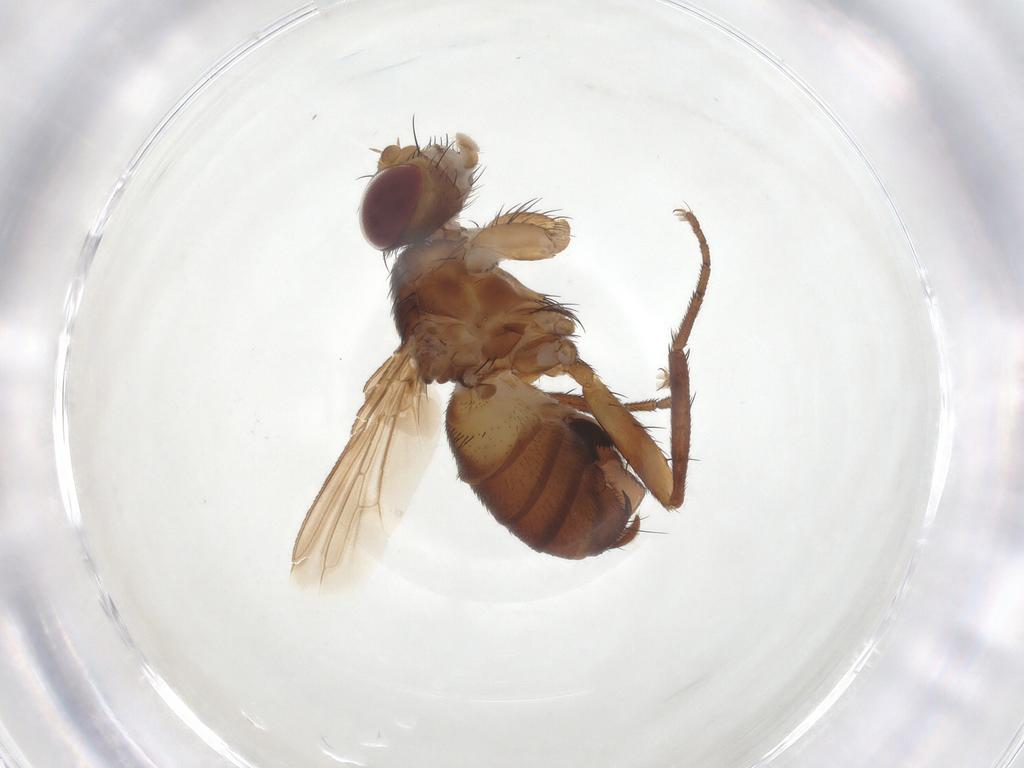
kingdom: Animalia
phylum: Arthropoda
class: Insecta
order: Diptera
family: Tachinidae
